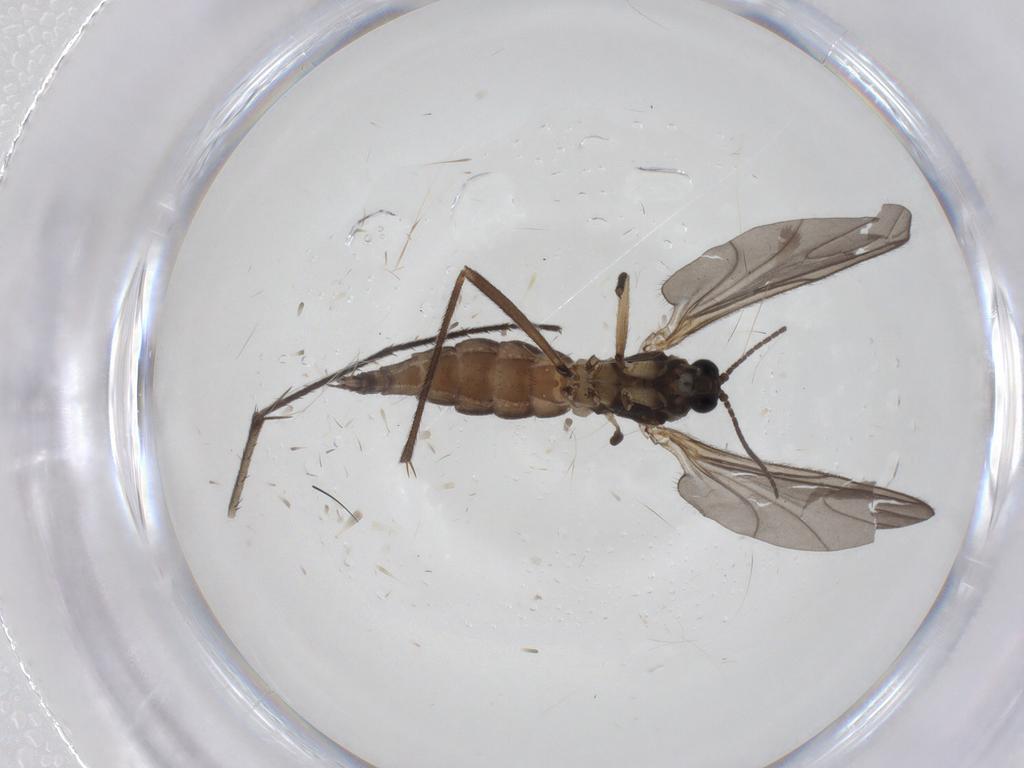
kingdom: Animalia
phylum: Arthropoda
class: Insecta
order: Diptera
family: Sciaridae
